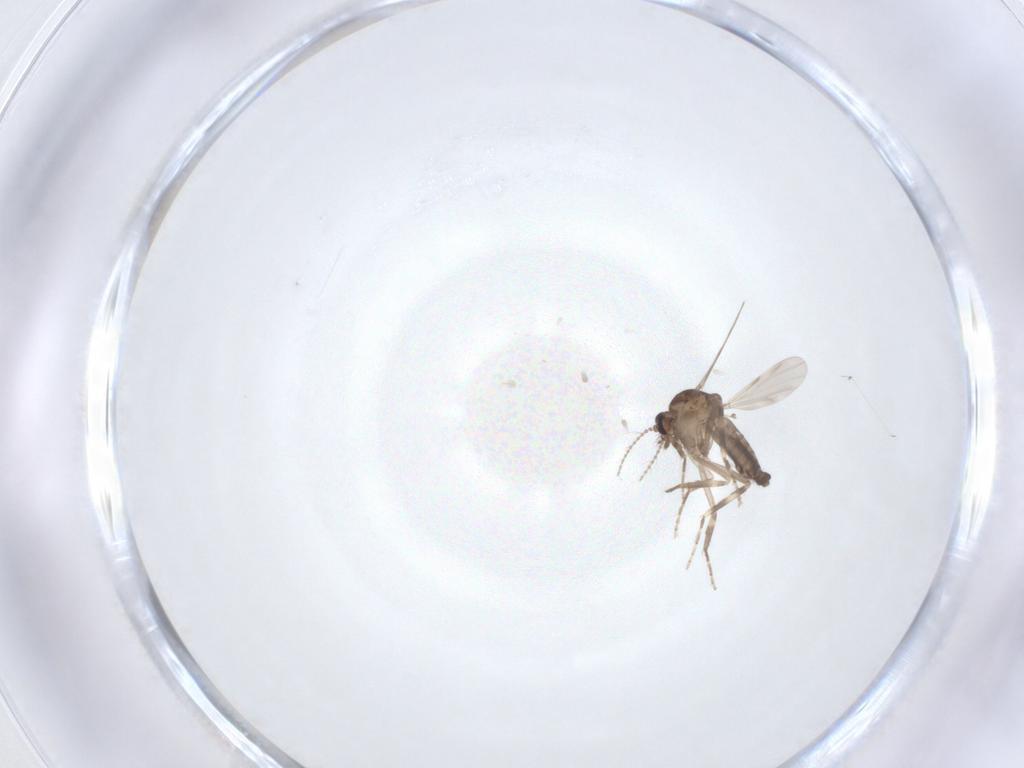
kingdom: Animalia
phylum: Arthropoda
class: Insecta
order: Diptera
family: Ceratopogonidae
